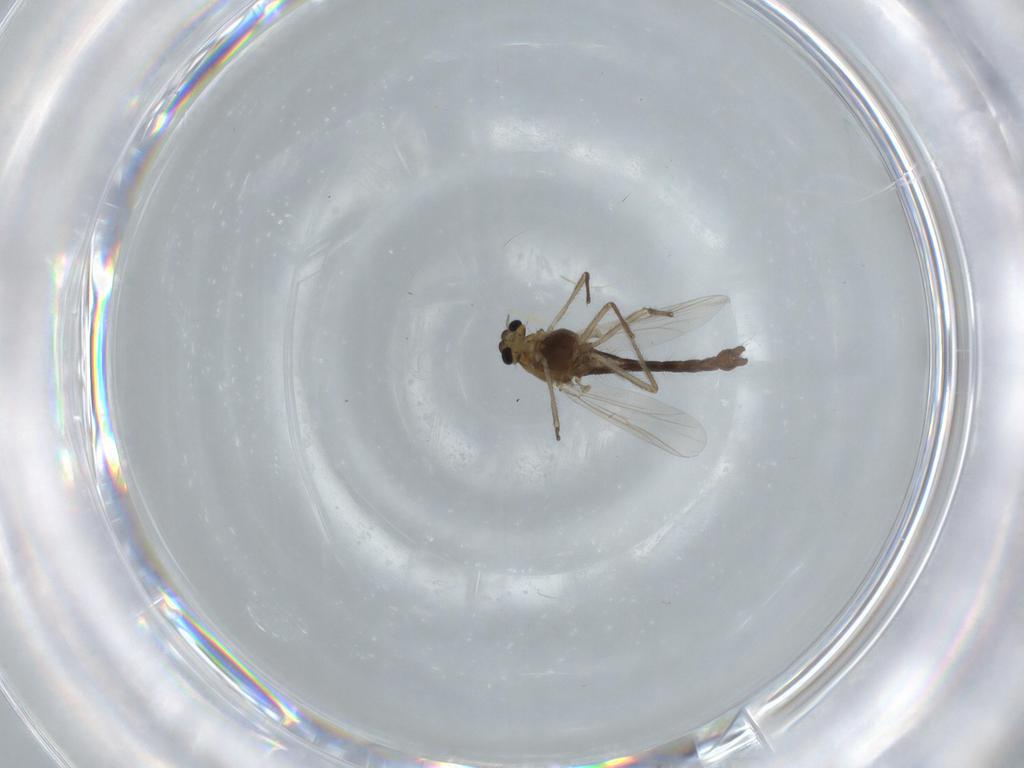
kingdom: Animalia
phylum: Arthropoda
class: Insecta
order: Diptera
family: Chironomidae
